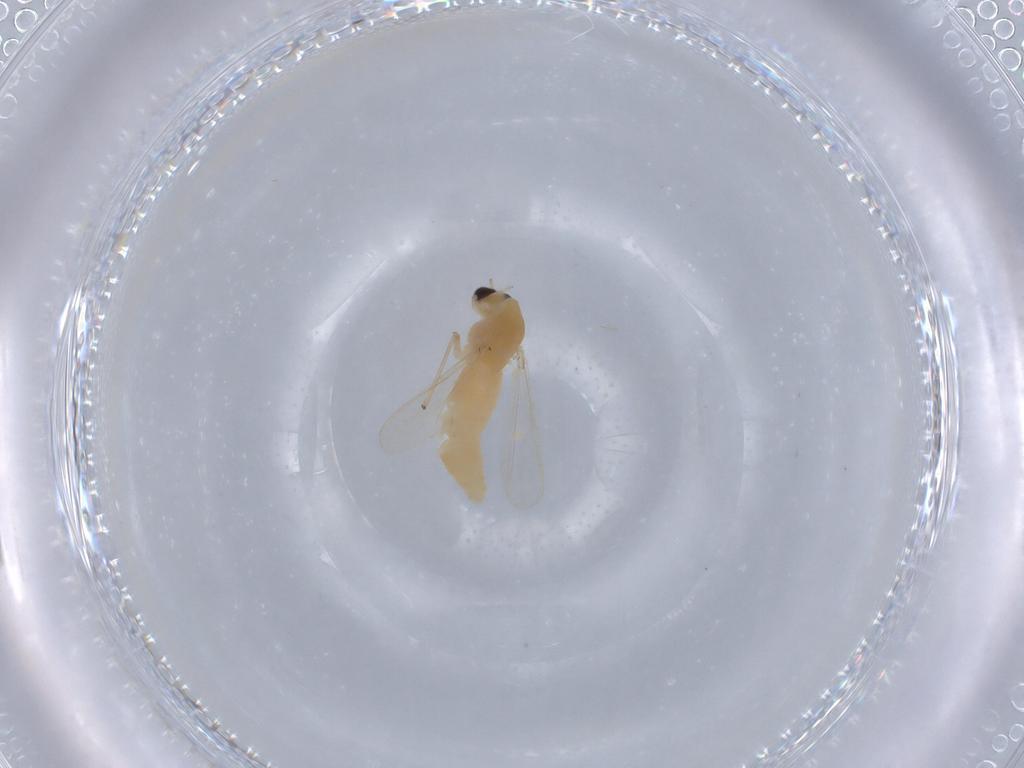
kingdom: Animalia
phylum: Arthropoda
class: Insecta
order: Diptera
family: Chironomidae
